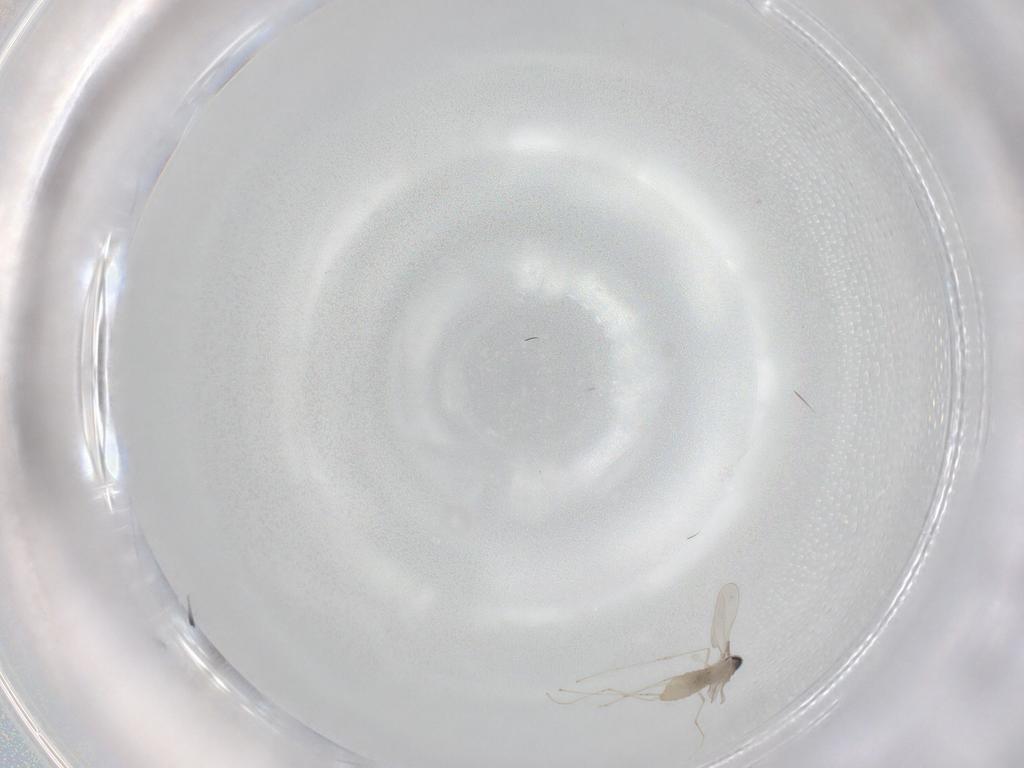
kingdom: Animalia
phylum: Arthropoda
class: Insecta
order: Diptera
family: Chironomidae
